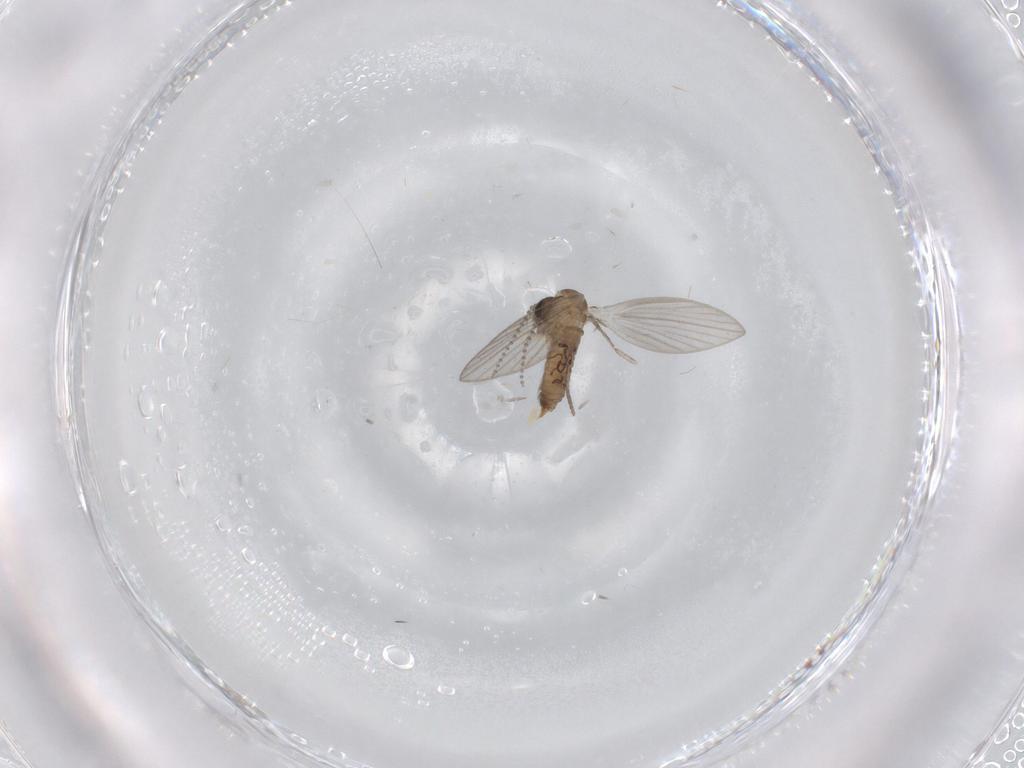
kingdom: Animalia
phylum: Arthropoda
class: Insecta
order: Diptera
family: Psychodidae
